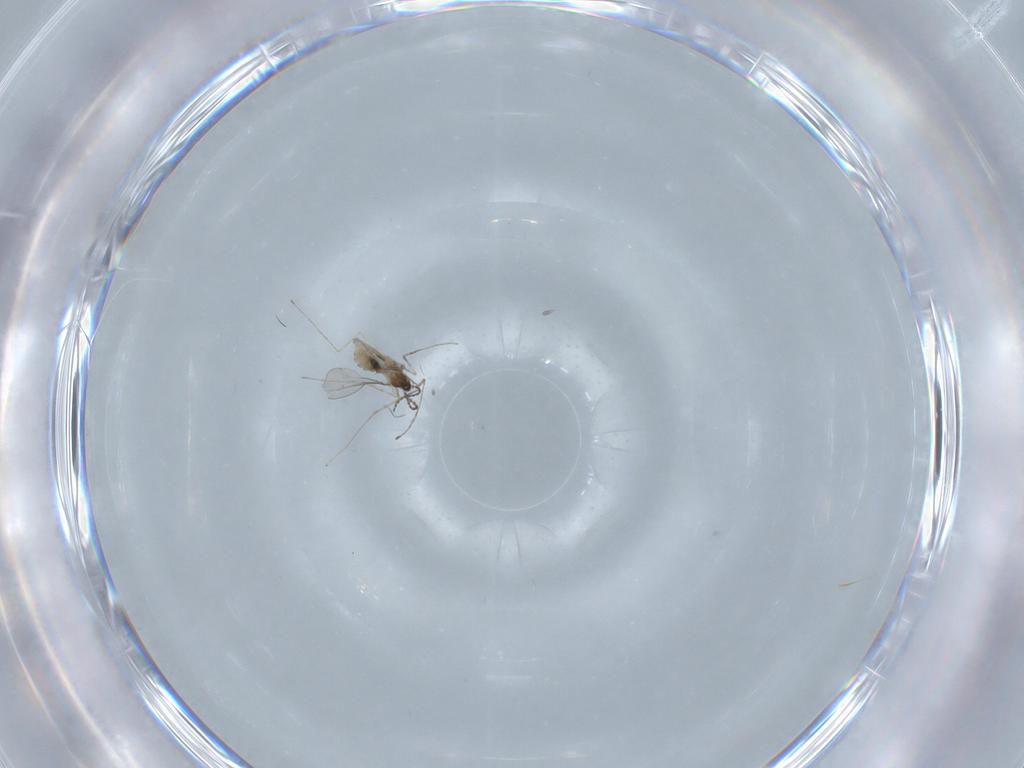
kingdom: Animalia
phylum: Arthropoda
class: Insecta
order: Diptera
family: Cecidomyiidae
